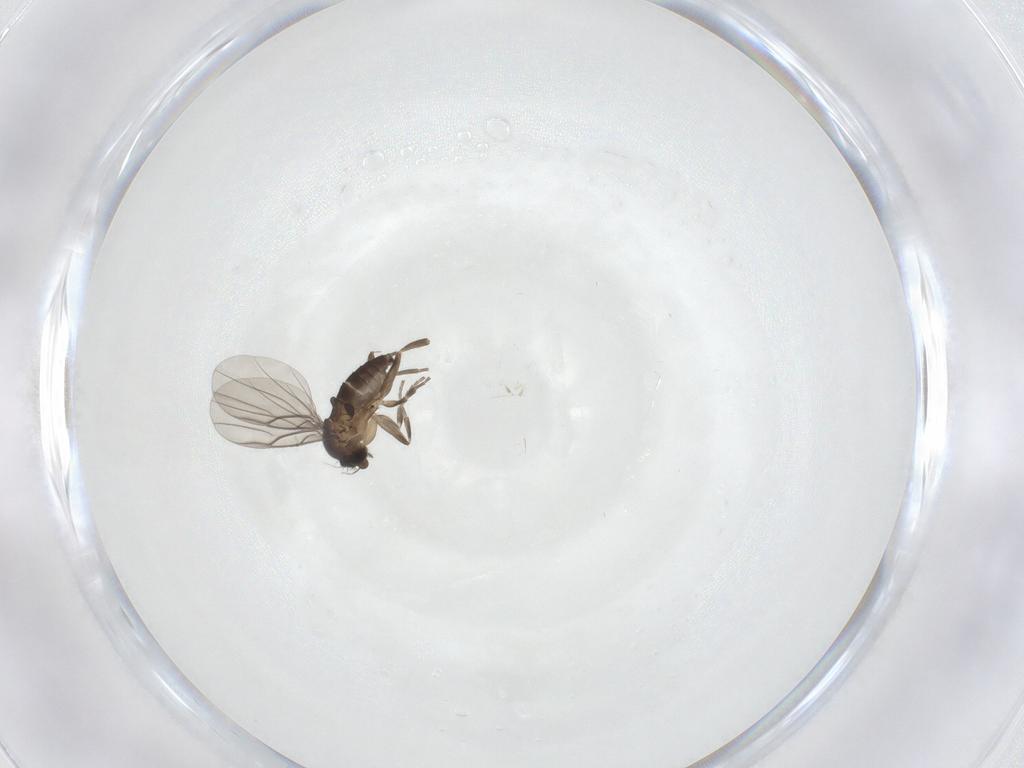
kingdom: Animalia
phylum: Arthropoda
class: Insecta
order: Diptera
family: Phoridae
